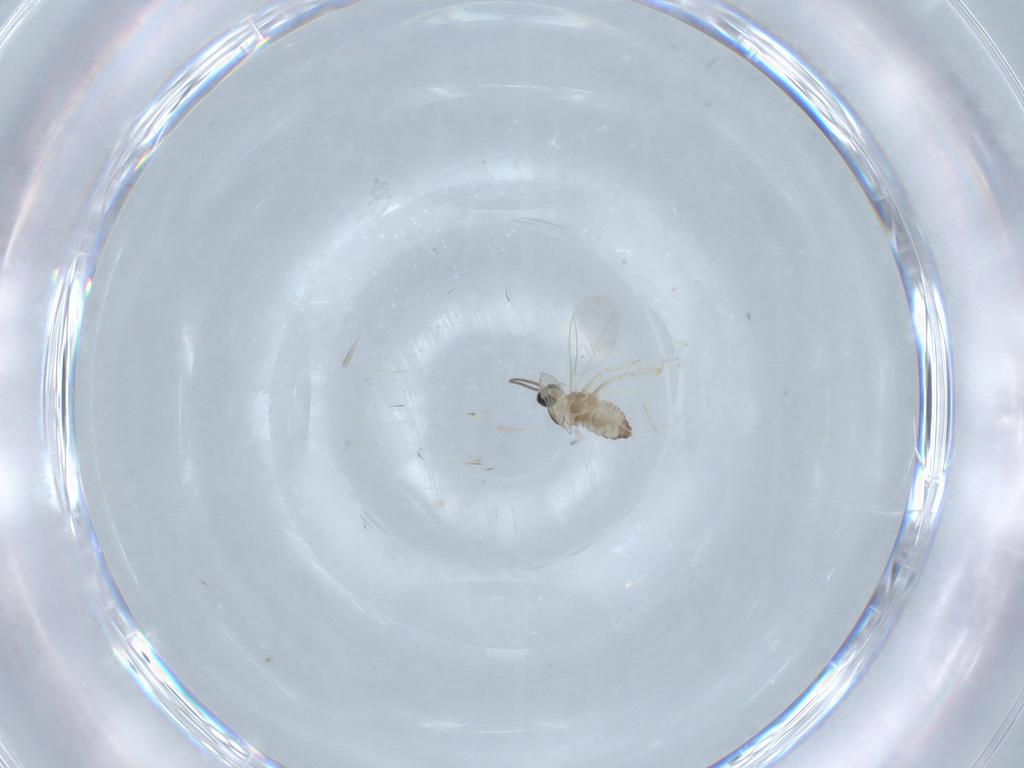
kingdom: Animalia
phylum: Arthropoda
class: Insecta
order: Diptera
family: Cecidomyiidae
